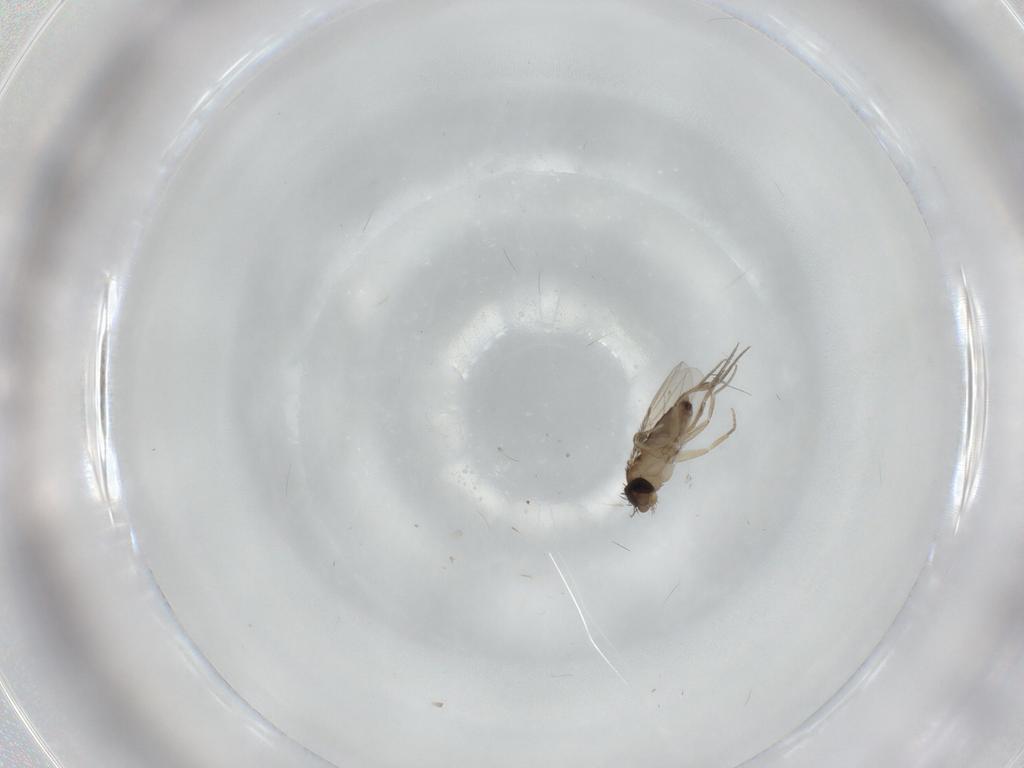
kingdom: Animalia
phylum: Arthropoda
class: Insecta
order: Diptera
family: Phoridae
